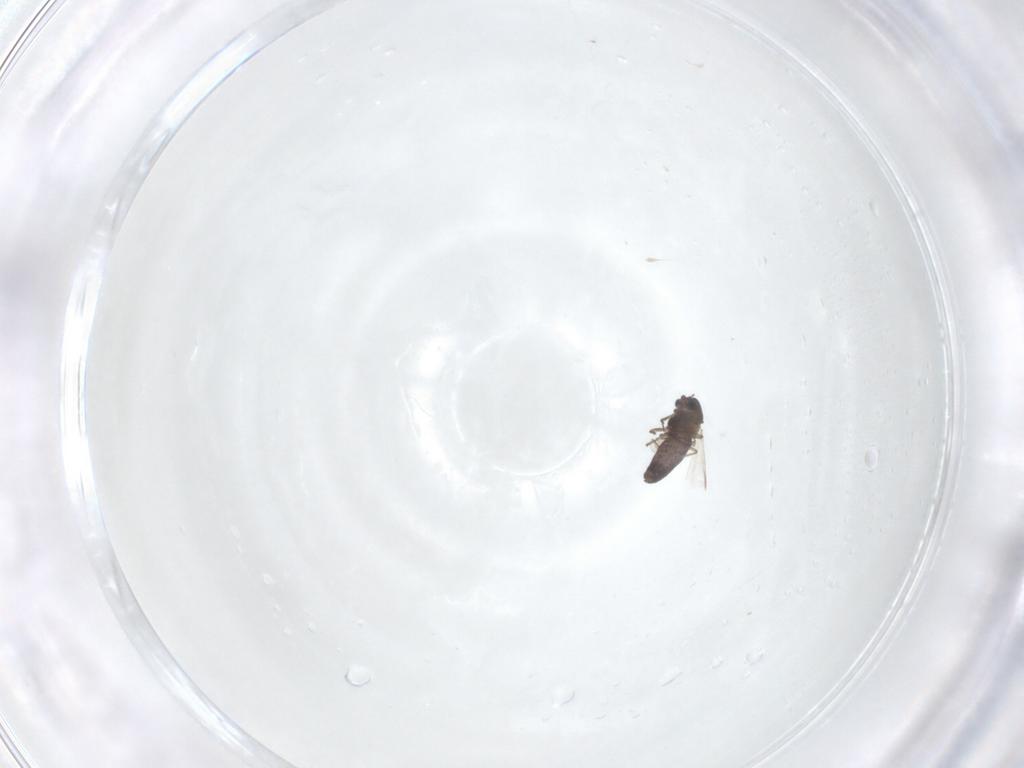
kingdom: Animalia
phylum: Arthropoda
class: Insecta
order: Diptera
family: Chironomidae
